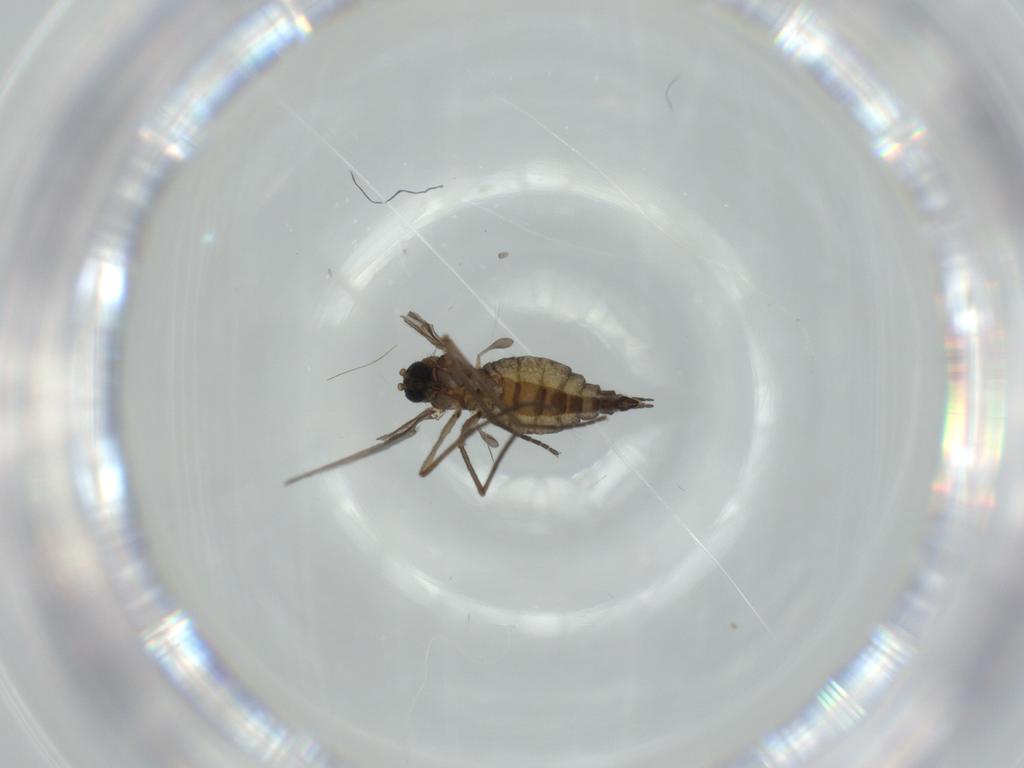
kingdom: Animalia
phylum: Arthropoda
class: Insecta
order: Diptera
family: Sciaridae
